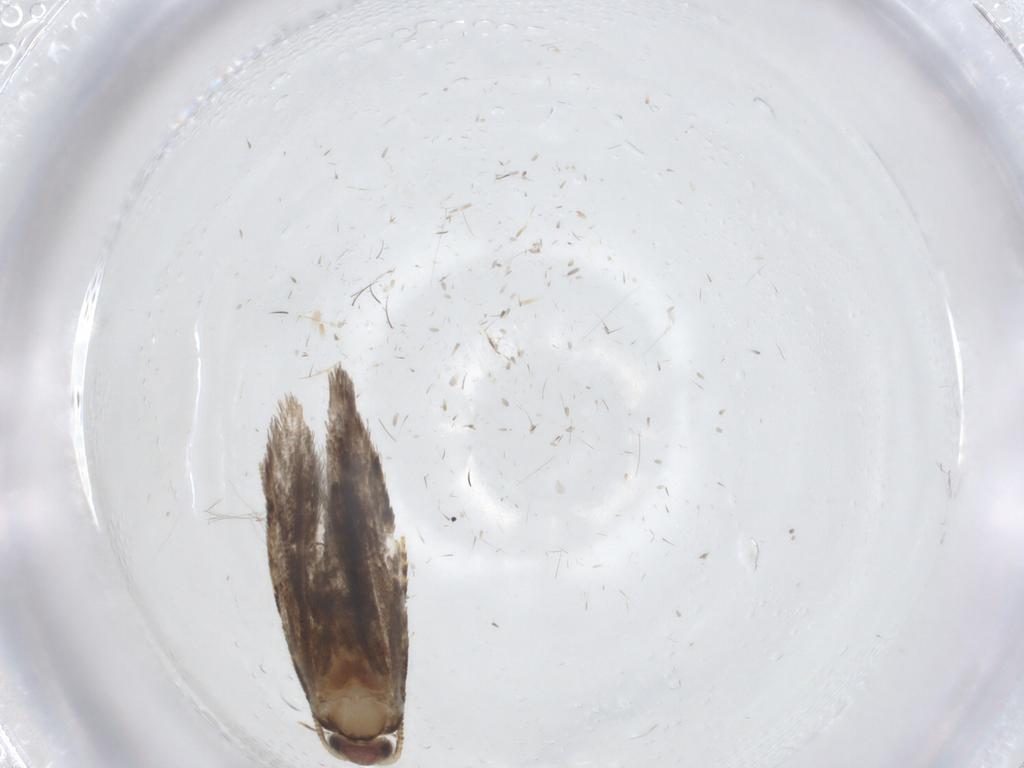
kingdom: Animalia
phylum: Arthropoda
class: Insecta
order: Lepidoptera
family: Tineidae
